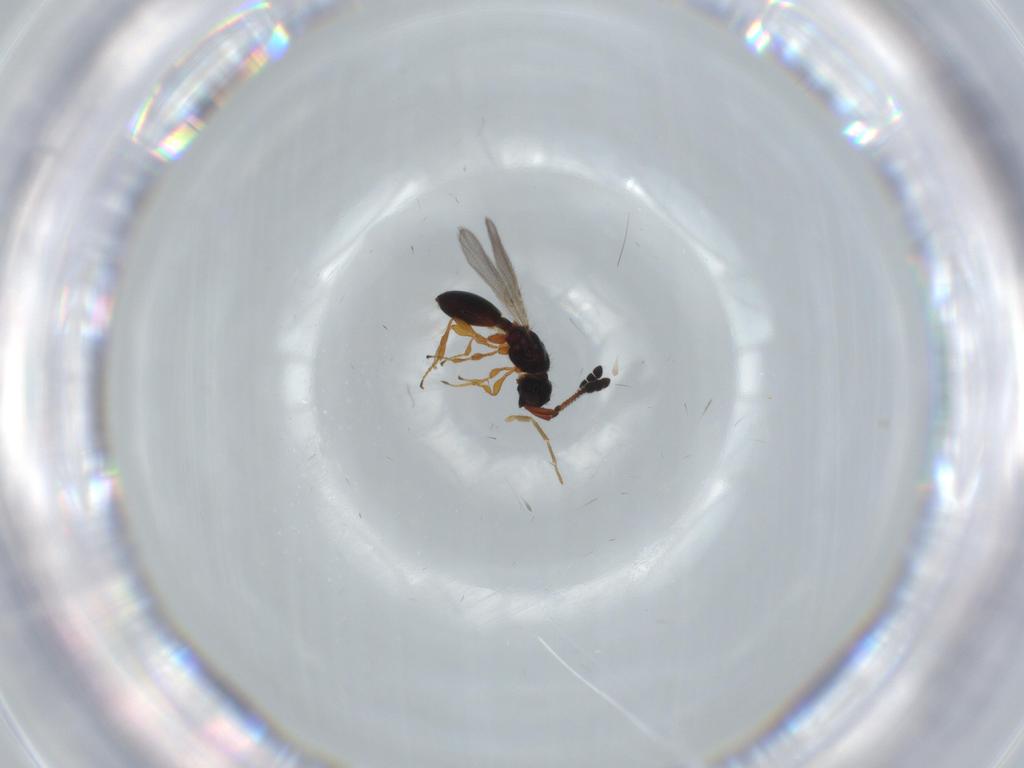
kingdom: Animalia
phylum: Arthropoda
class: Insecta
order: Hymenoptera
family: Diapriidae
